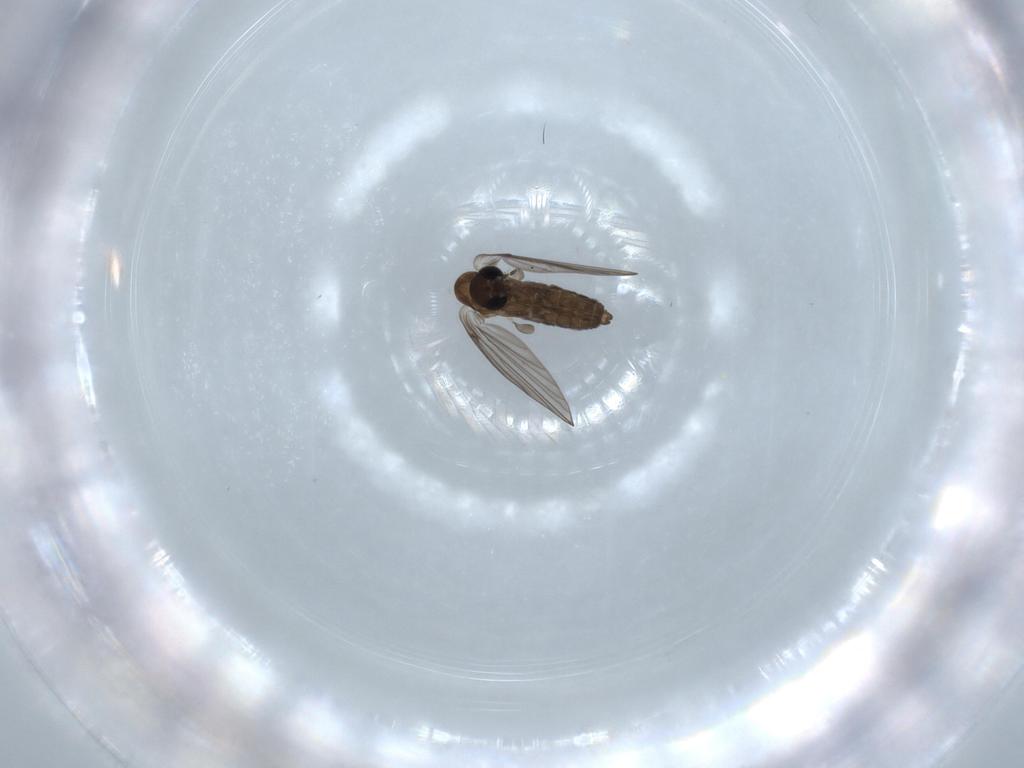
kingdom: Animalia
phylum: Arthropoda
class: Insecta
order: Diptera
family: Psychodidae
